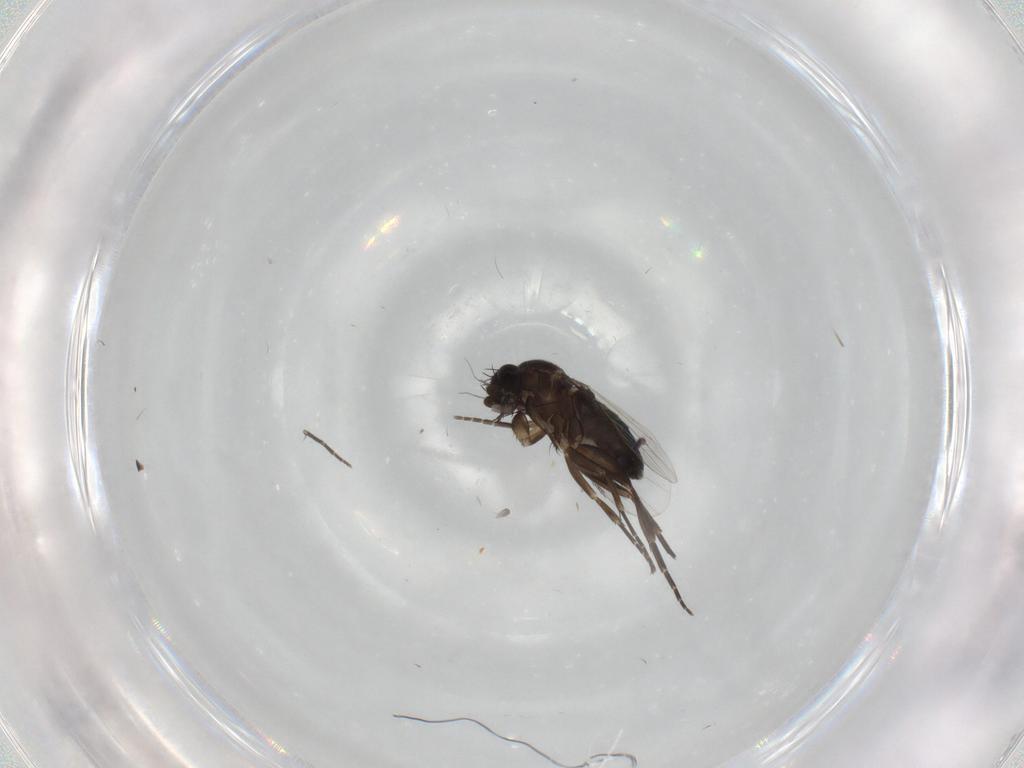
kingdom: Animalia
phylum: Arthropoda
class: Insecta
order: Diptera
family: Phoridae
